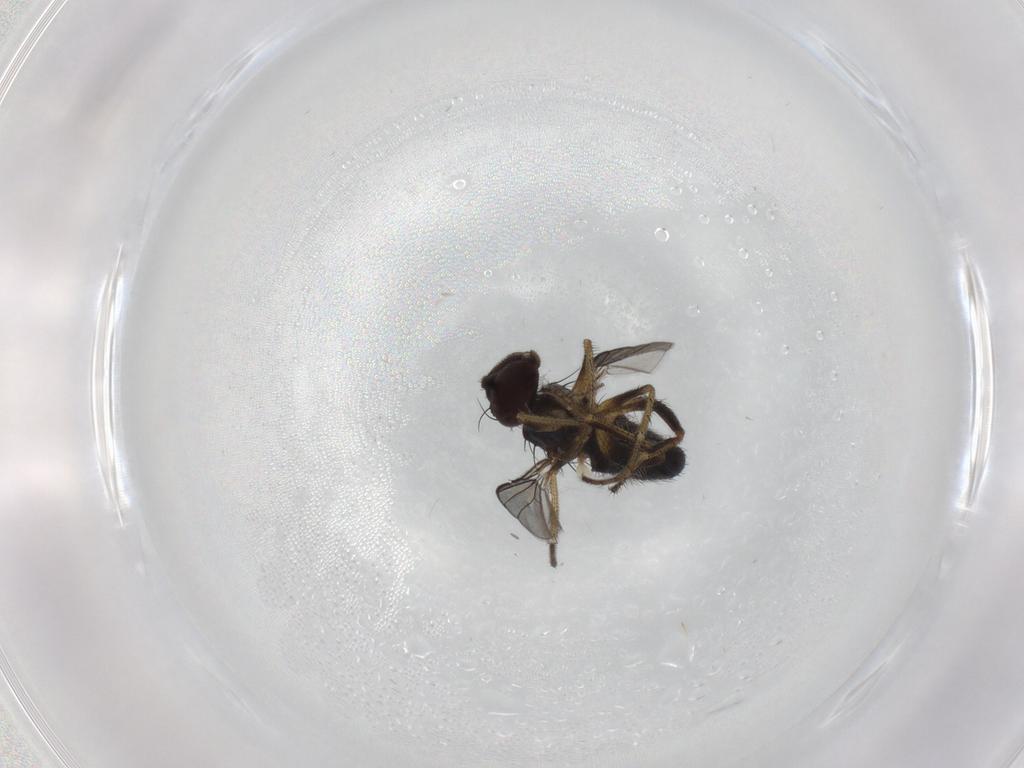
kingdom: Animalia
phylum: Arthropoda
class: Insecta
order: Diptera
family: Dolichopodidae
